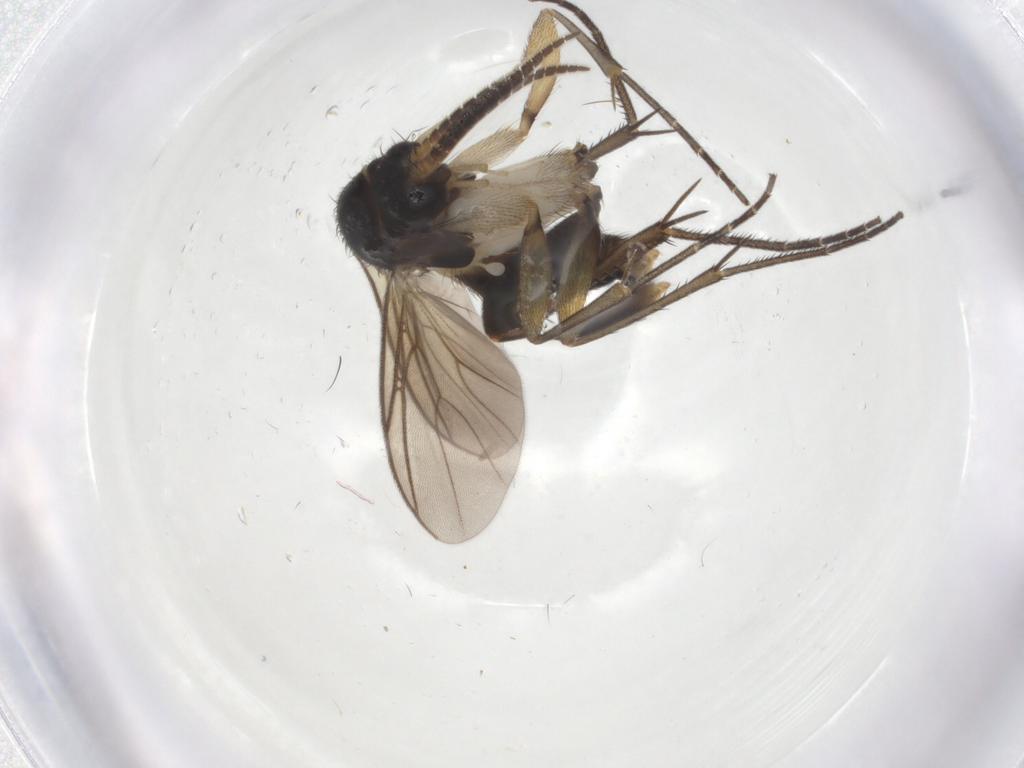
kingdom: Animalia
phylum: Arthropoda
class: Insecta
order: Diptera
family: Mycetophilidae
